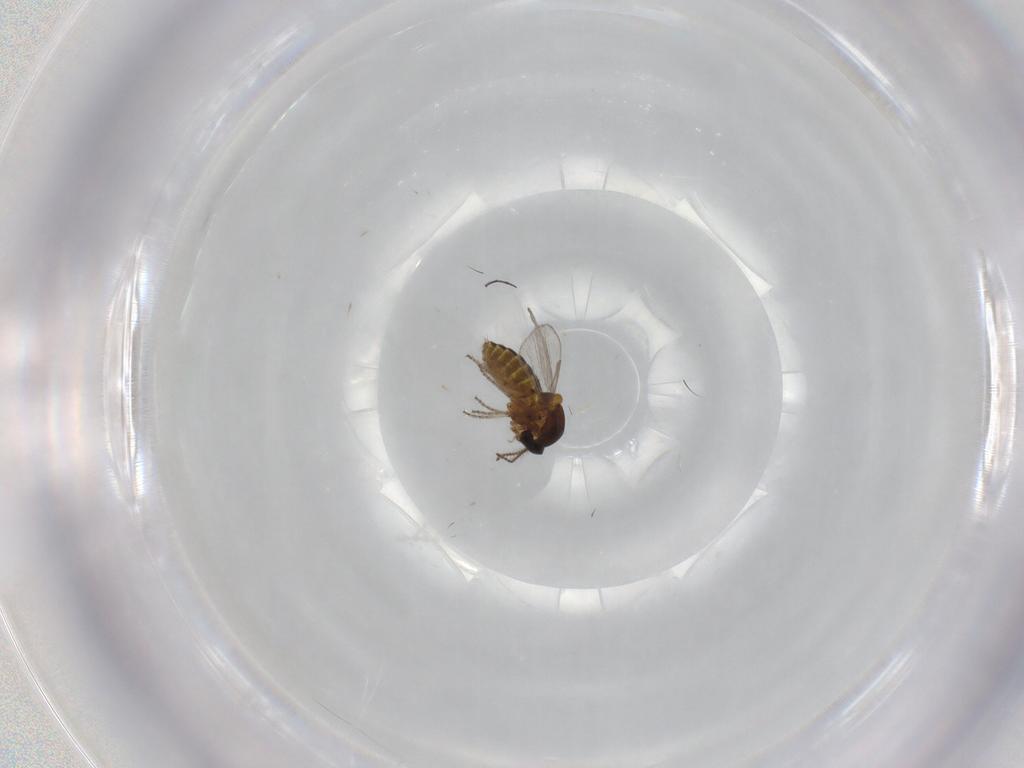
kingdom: Animalia
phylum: Arthropoda
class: Insecta
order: Diptera
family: Ceratopogonidae
